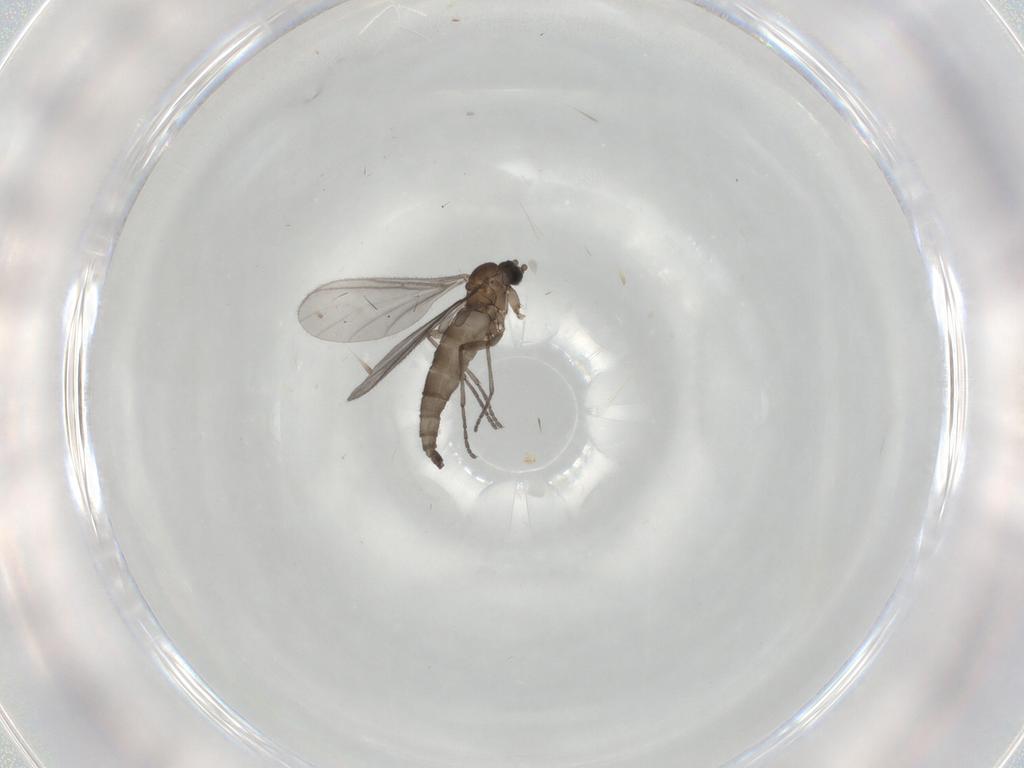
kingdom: Animalia
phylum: Arthropoda
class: Insecta
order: Diptera
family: Sciaridae
